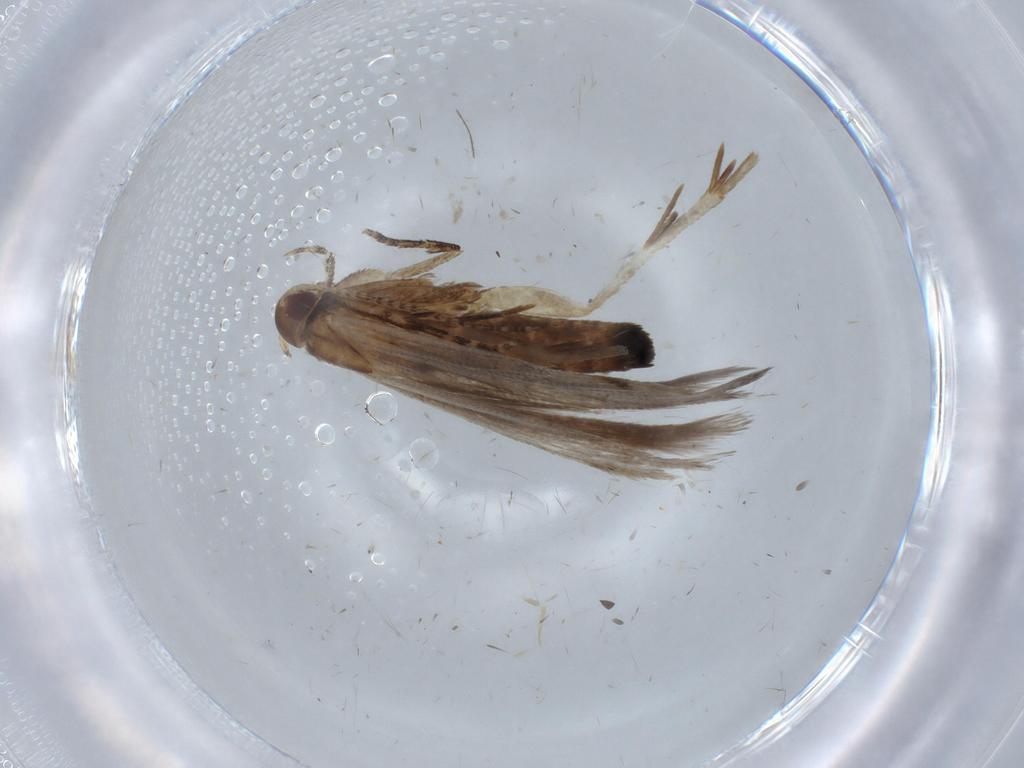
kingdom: Animalia
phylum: Arthropoda
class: Insecta
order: Lepidoptera
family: Gelechiidae
